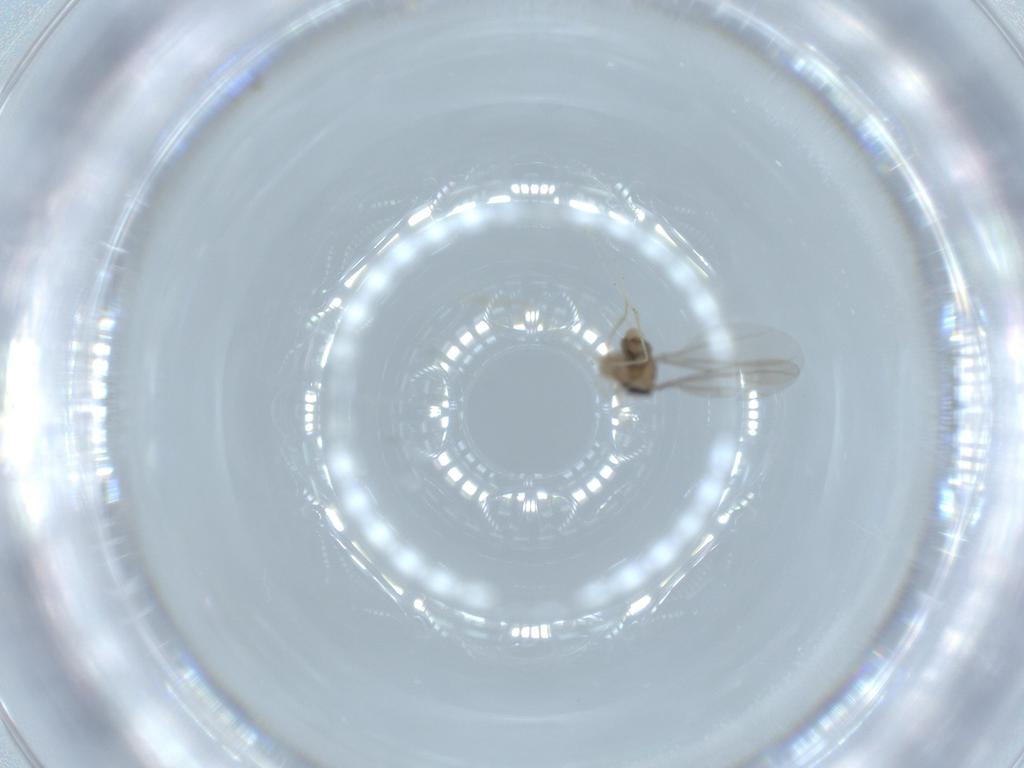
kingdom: Animalia
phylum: Arthropoda
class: Insecta
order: Diptera
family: Cecidomyiidae
